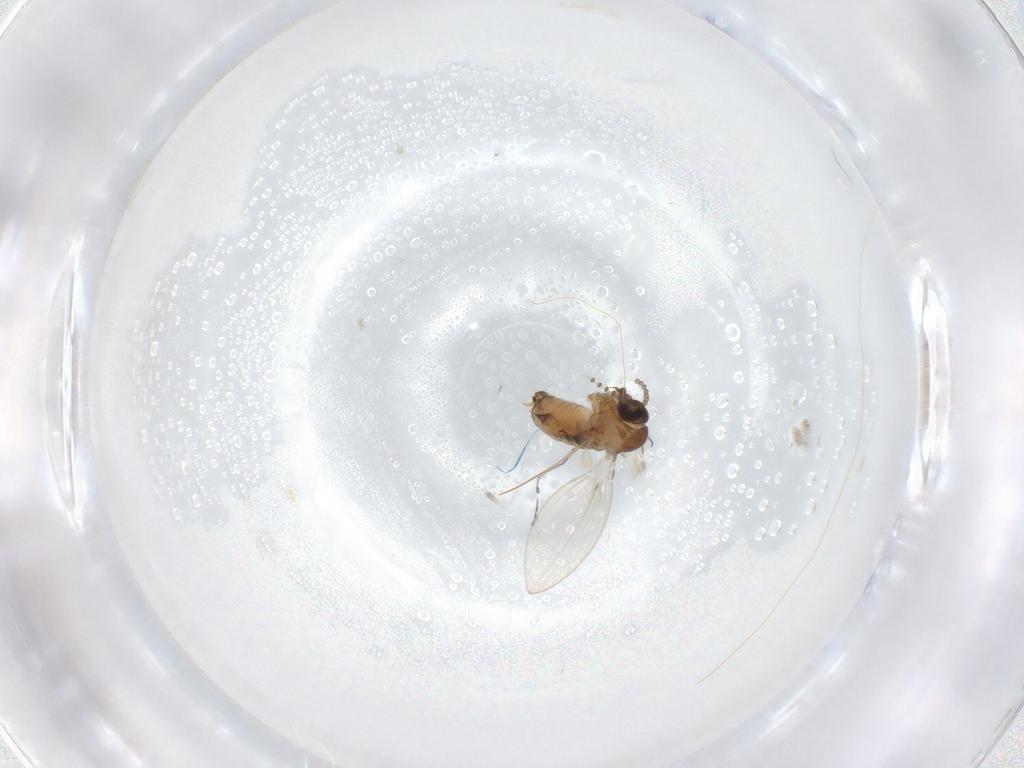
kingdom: Animalia
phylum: Arthropoda
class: Insecta
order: Diptera
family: Psychodidae
